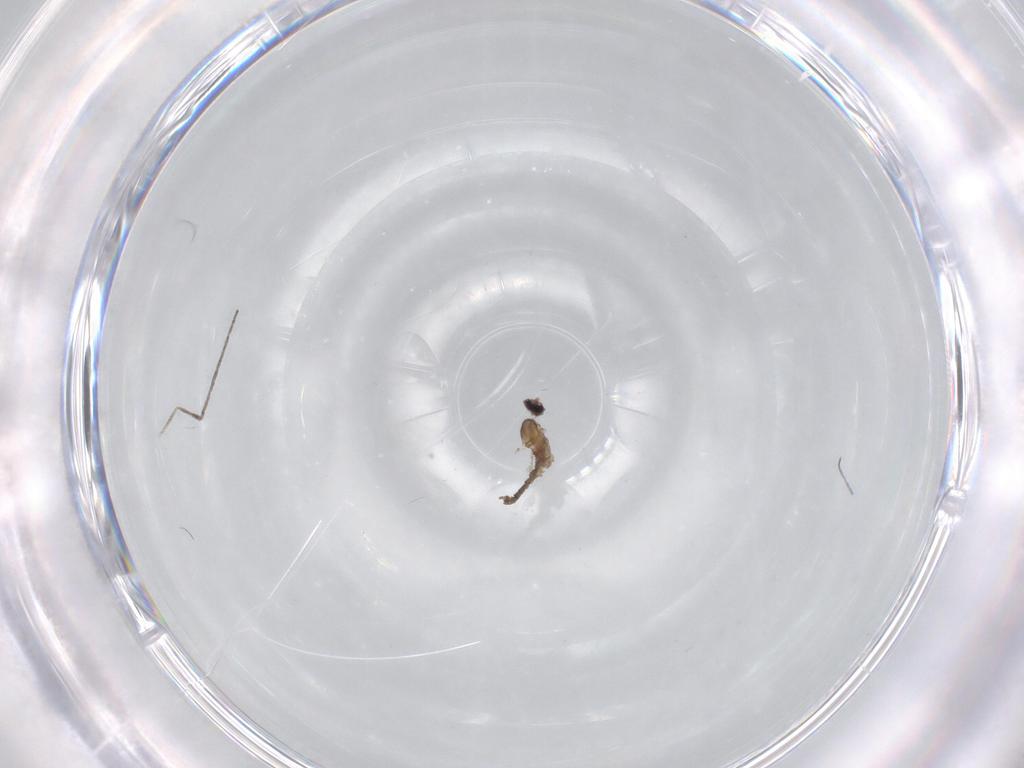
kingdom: Animalia
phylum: Arthropoda
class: Insecta
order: Diptera
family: Cecidomyiidae
